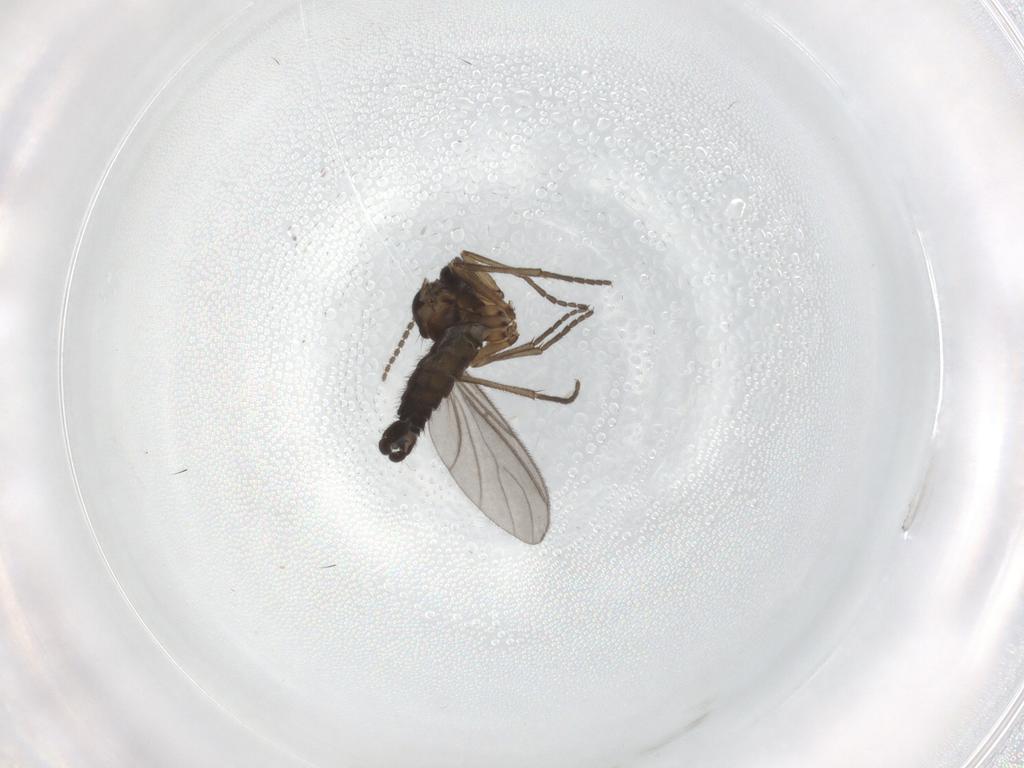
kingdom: Animalia
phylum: Arthropoda
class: Insecta
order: Diptera
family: Sciaridae
